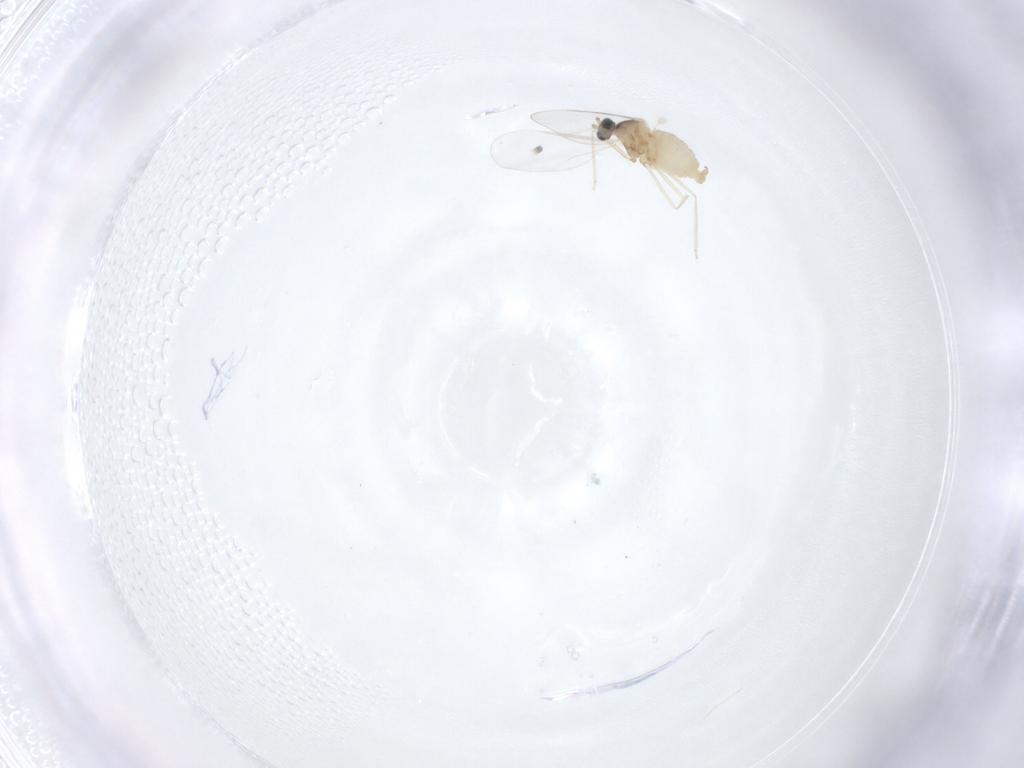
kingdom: Animalia
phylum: Arthropoda
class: Insecta
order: Diptera
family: Cecidomyiidae
